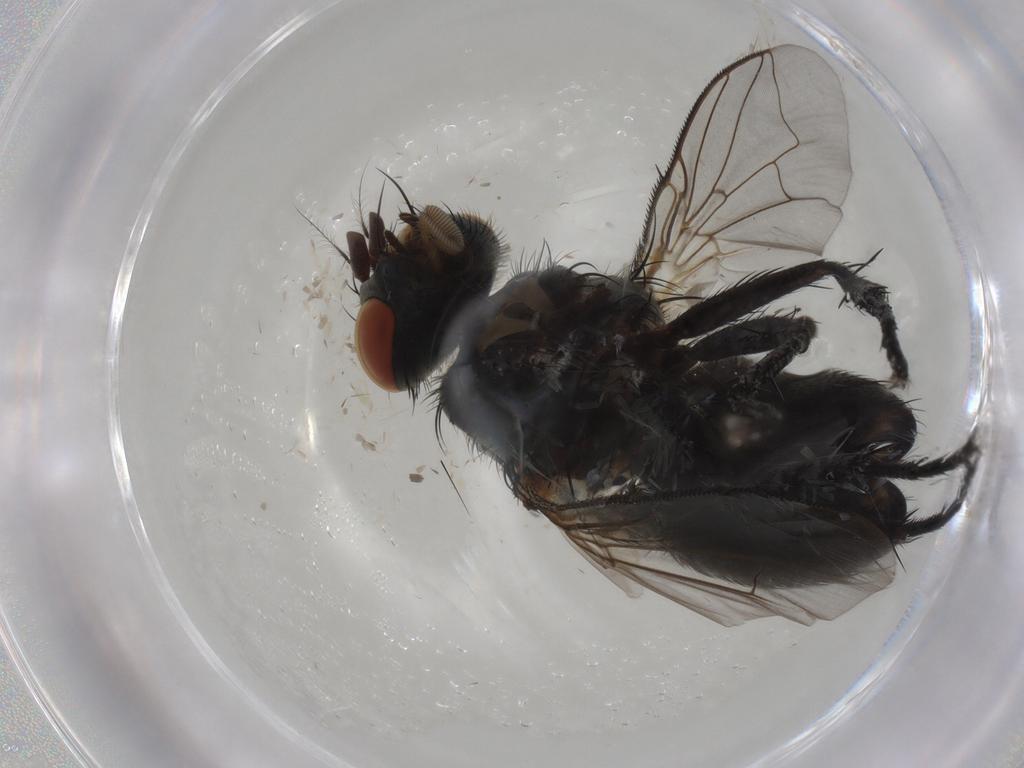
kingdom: Animalia
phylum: Arthropoda
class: Insecta
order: Diptera
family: Sarcophagidae
